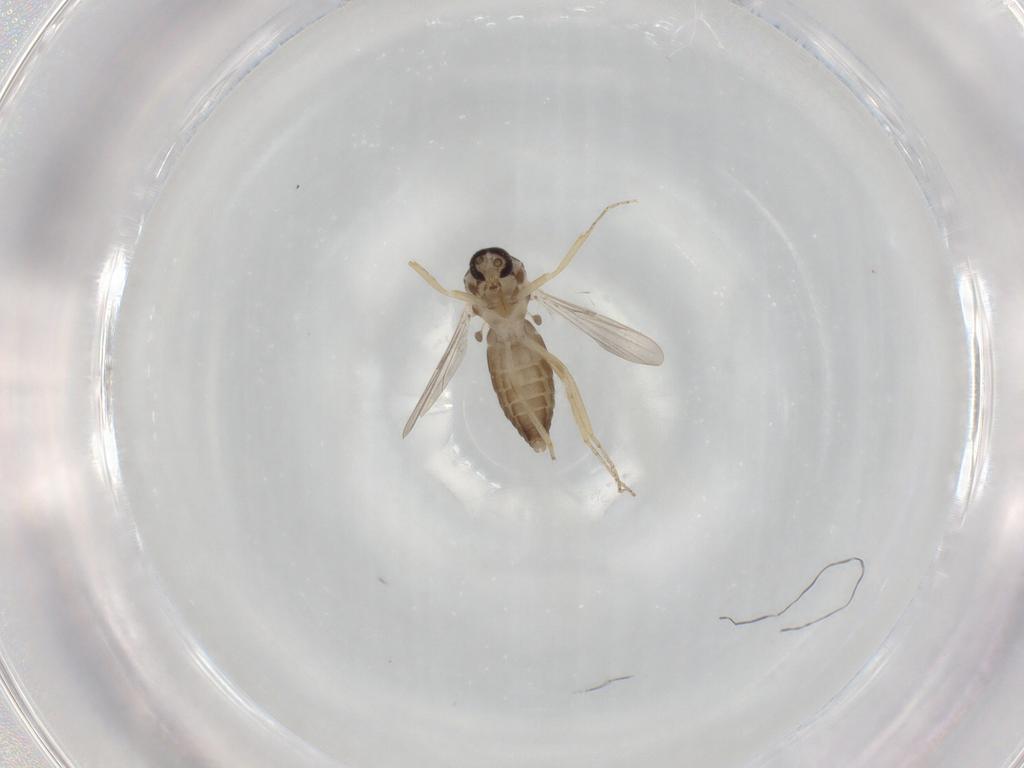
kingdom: Animalia
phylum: Arthropoda
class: Insecta
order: Diptera
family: Ceratopogonidae
